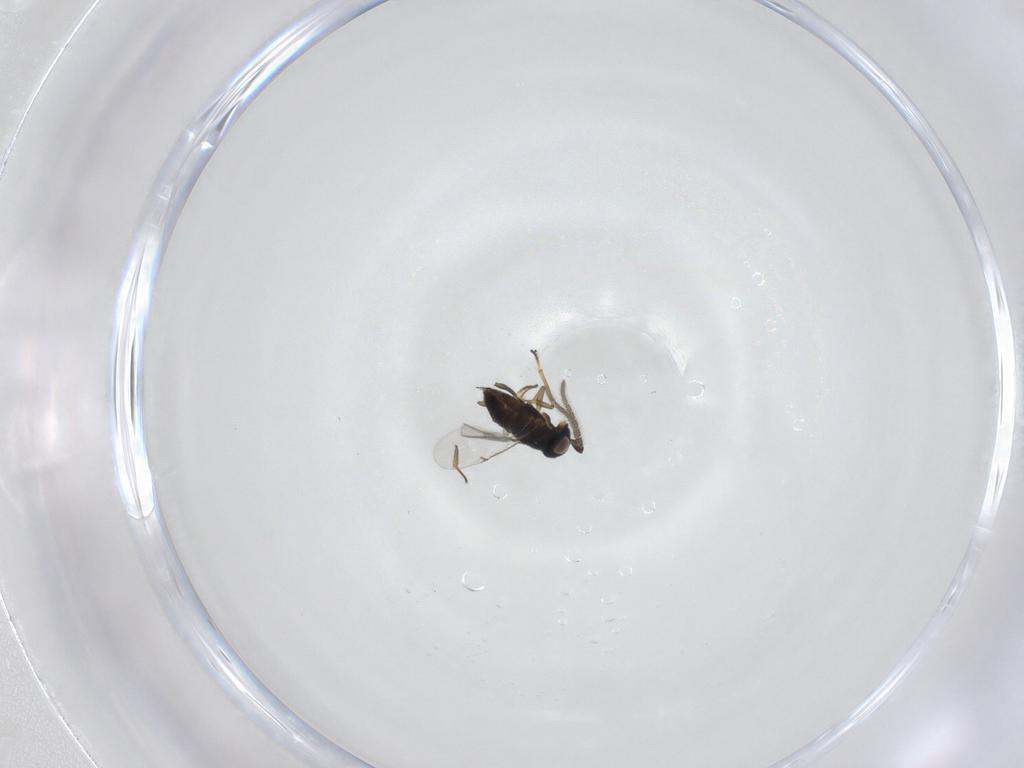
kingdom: Animalia
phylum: Arthropoda
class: Insecta
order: Hymenoptera
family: Encyrtidae
